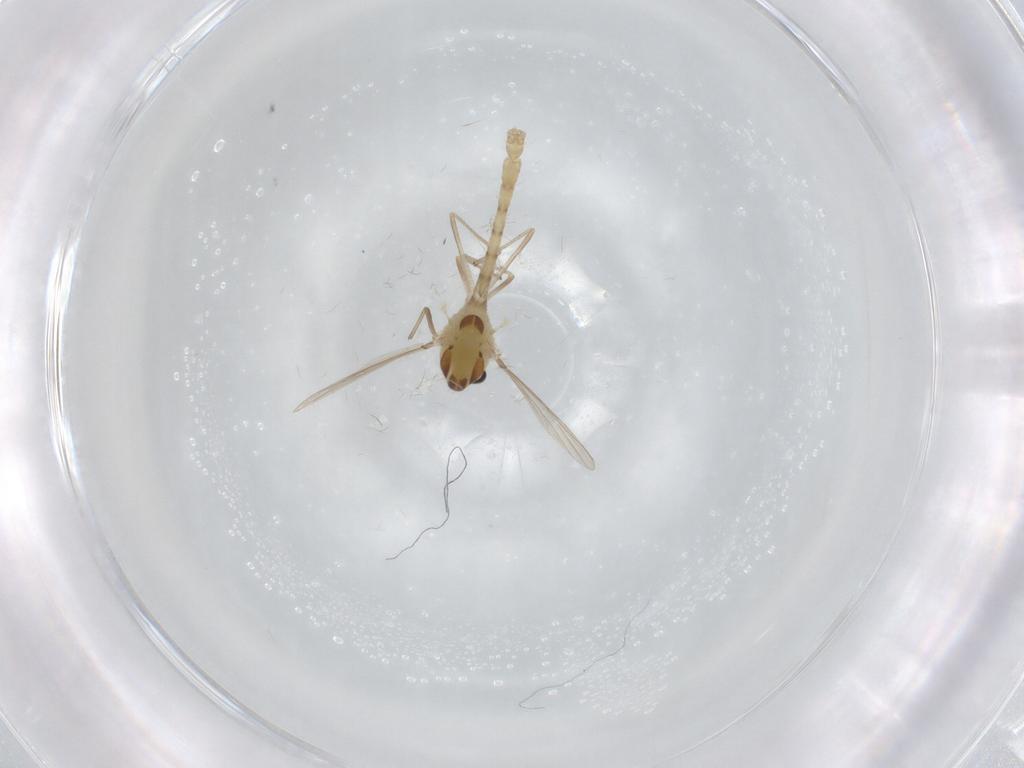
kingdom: Animalia
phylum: Arthropoda
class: Insecta
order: Diptera
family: Chironomidae
